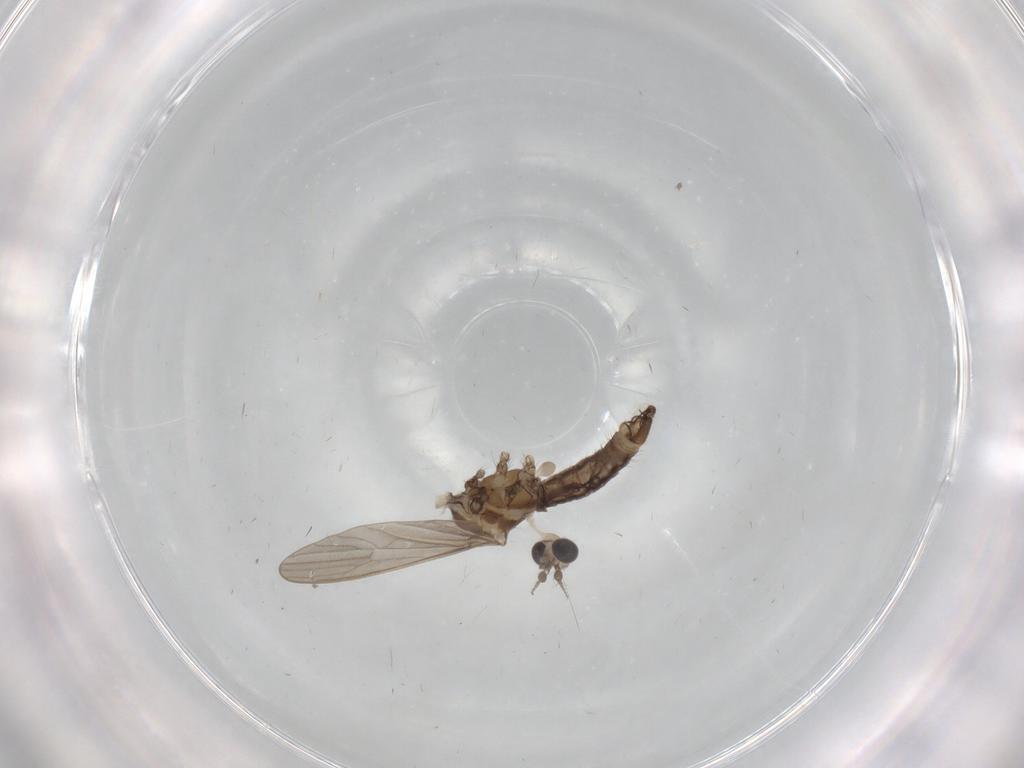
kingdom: Animalia
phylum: Arthropoda
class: Insecta
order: Diptera
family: Limoniidae
